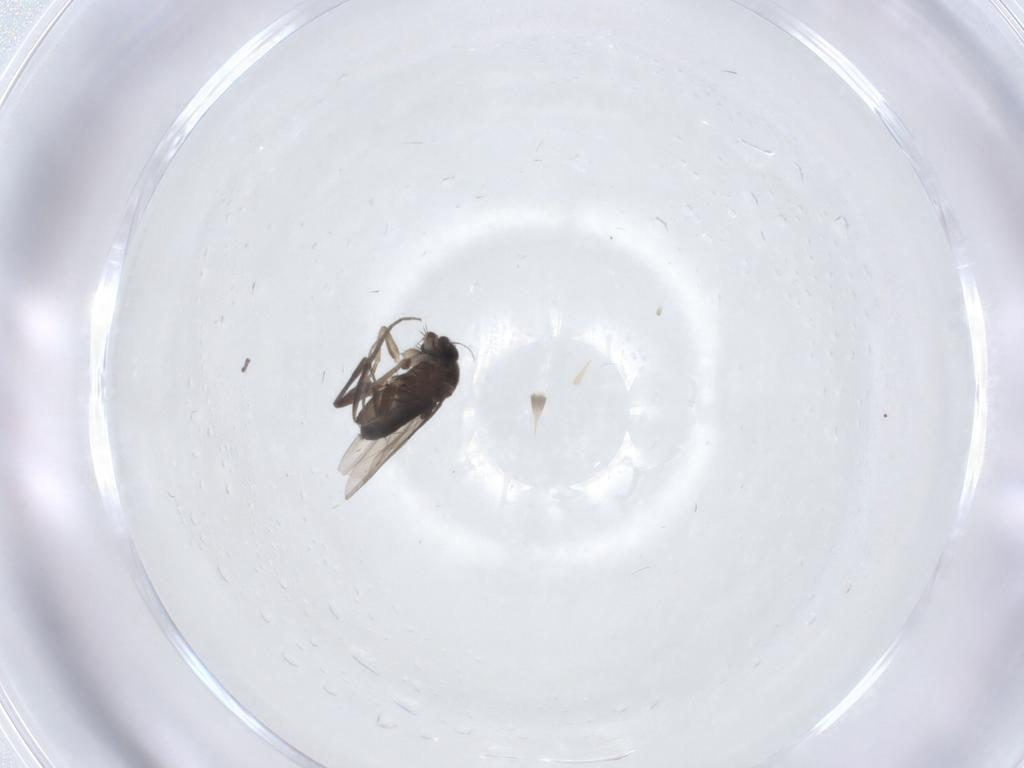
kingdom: Animalia
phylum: Arthropoda
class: Insecta
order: Diptera
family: Phoridae
